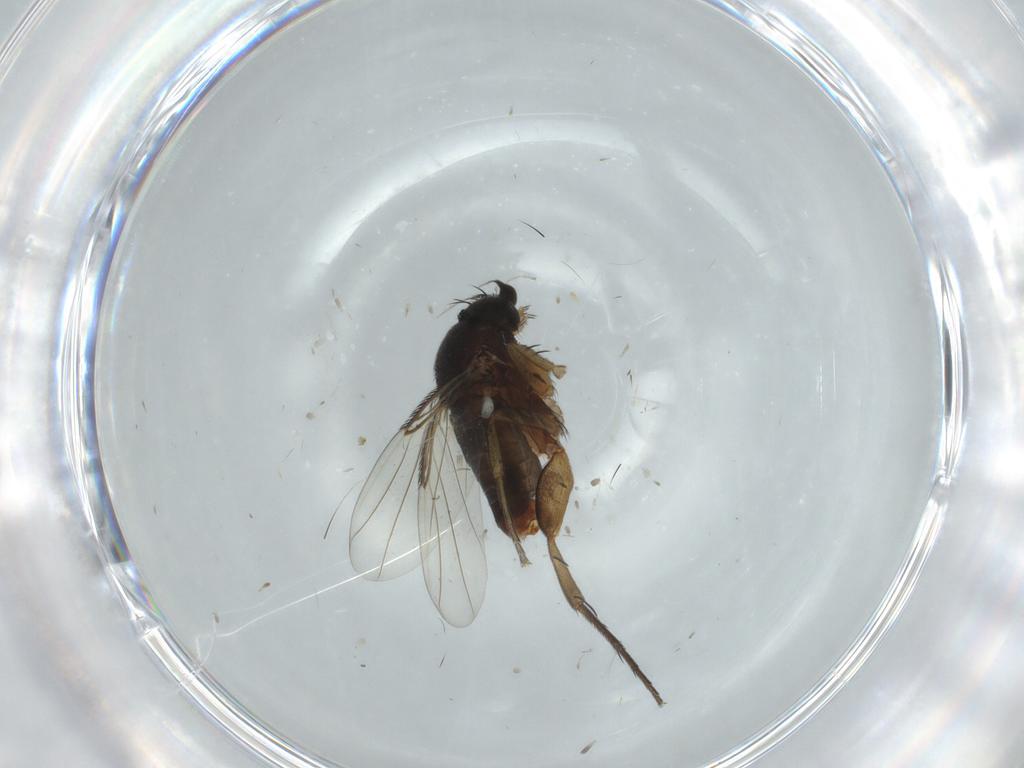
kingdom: Animalia
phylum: Arthropoda
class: Insecta
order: Diptera
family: Phoridae
